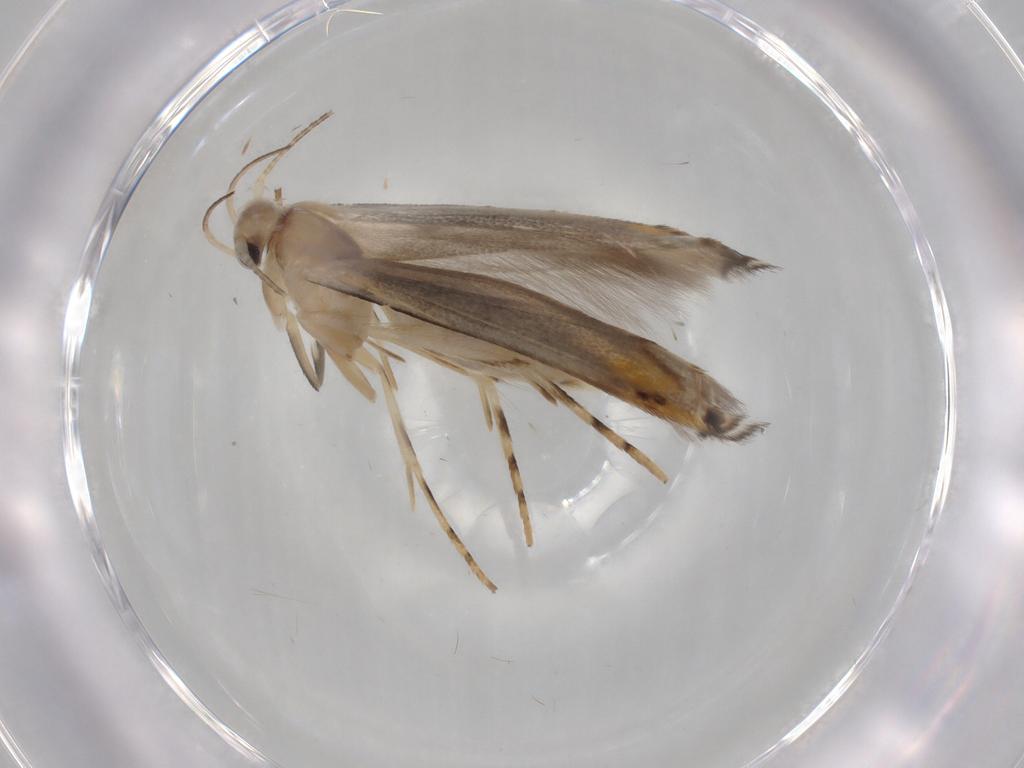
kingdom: Animalia
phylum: Arthropoda
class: Insecta
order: Lepidoptera
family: Gelechiidae
